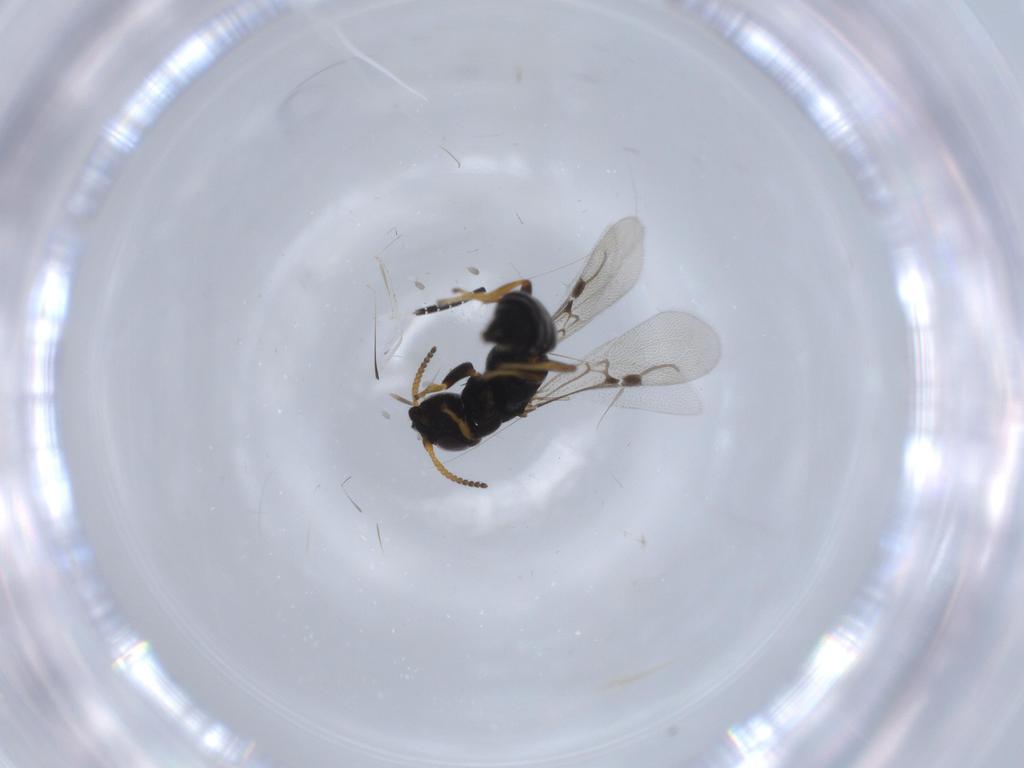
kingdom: Animalia
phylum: Arthropoda
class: Insecta
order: Hymenoptera
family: Bethylidae
